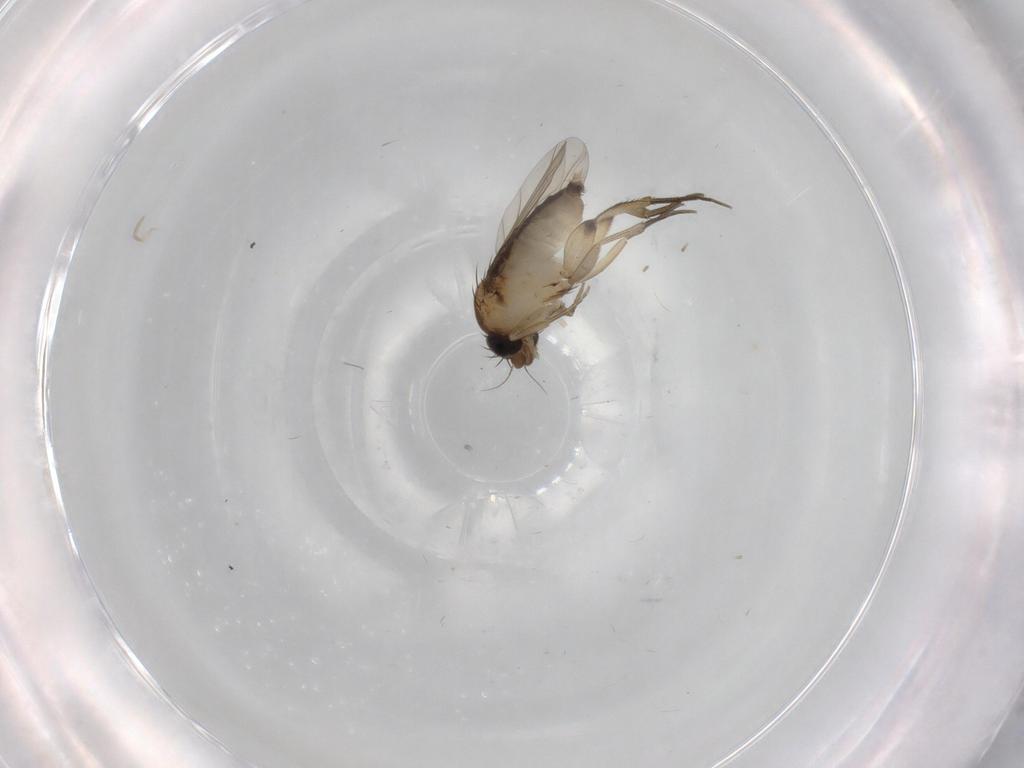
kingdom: Animalia
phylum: Arthropoda
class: Insecta
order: Diptera
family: Phoridae
